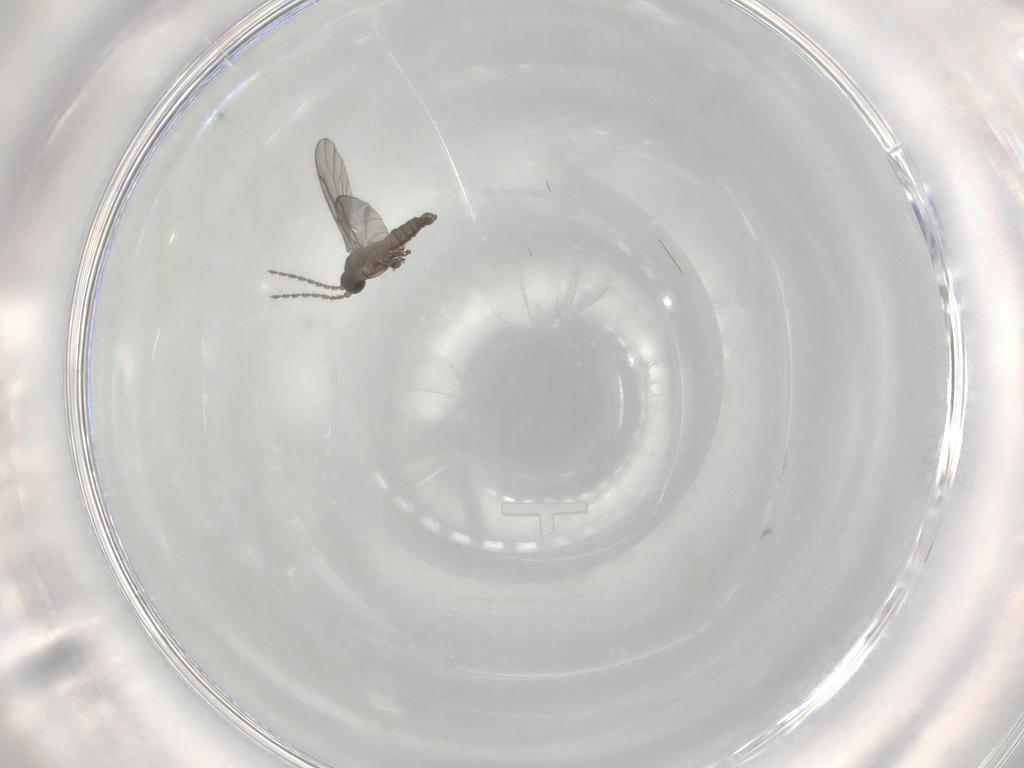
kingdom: Animalia
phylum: Arthropoda
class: Insecta
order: Diptera
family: Sciaridae
